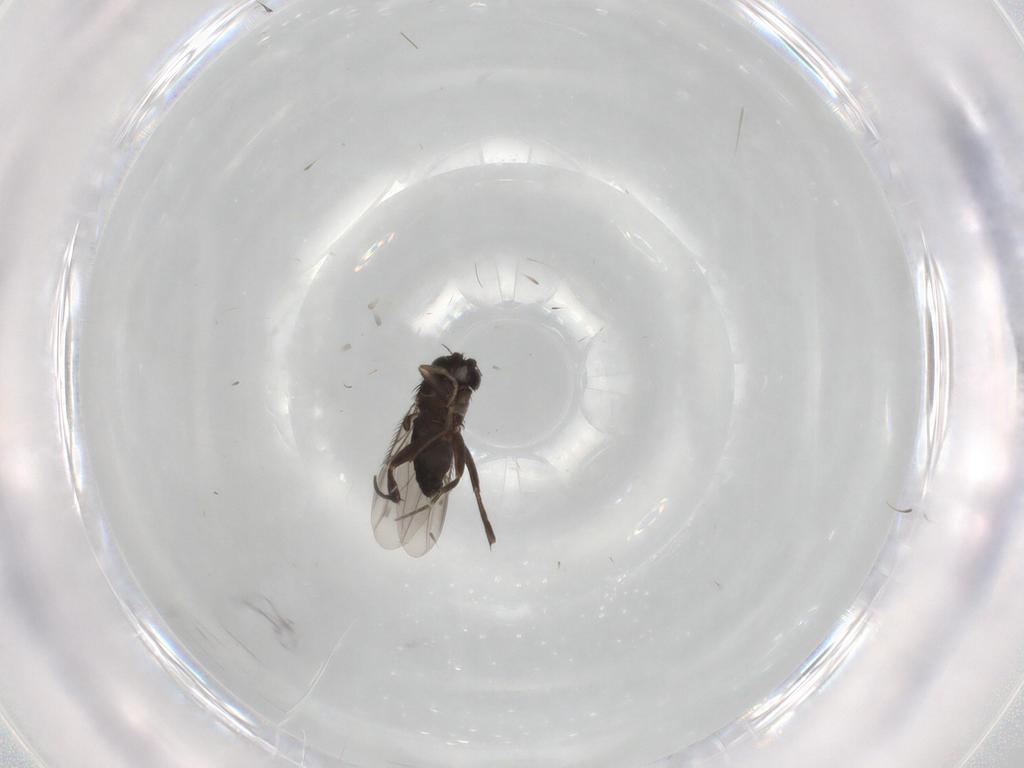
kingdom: Animalia
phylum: Arthropoda
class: Insecta
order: Diptera
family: Phoridae
